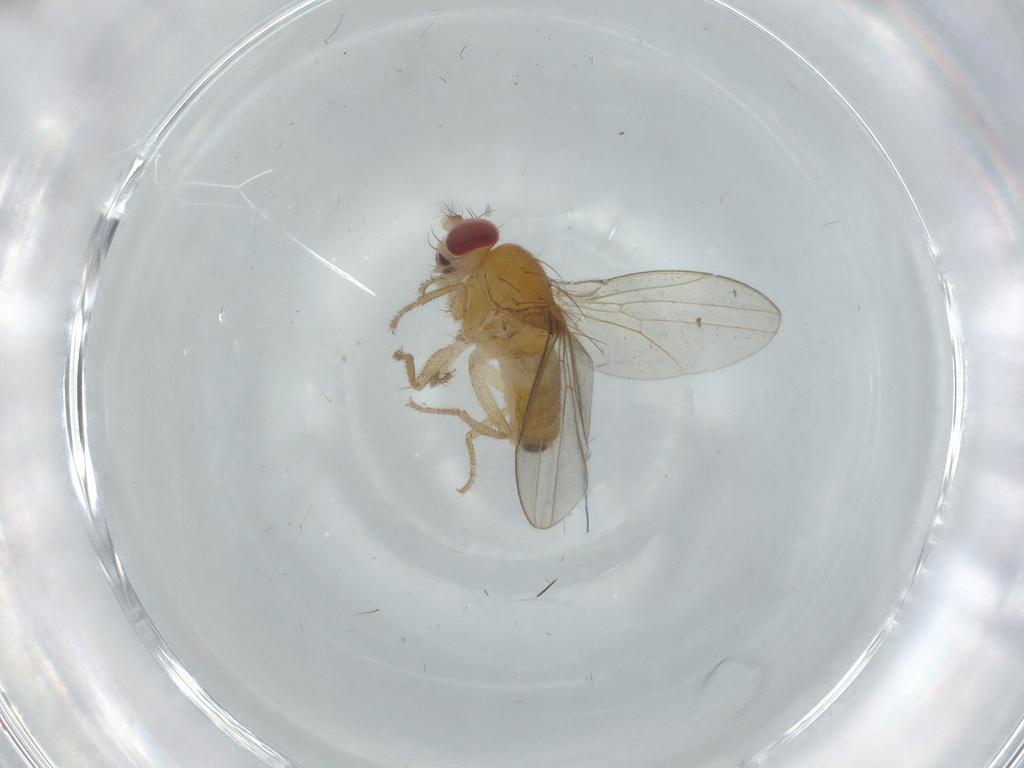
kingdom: Animalia
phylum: Arthropoda
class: Insecta
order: Diptera
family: Drosophilidae
